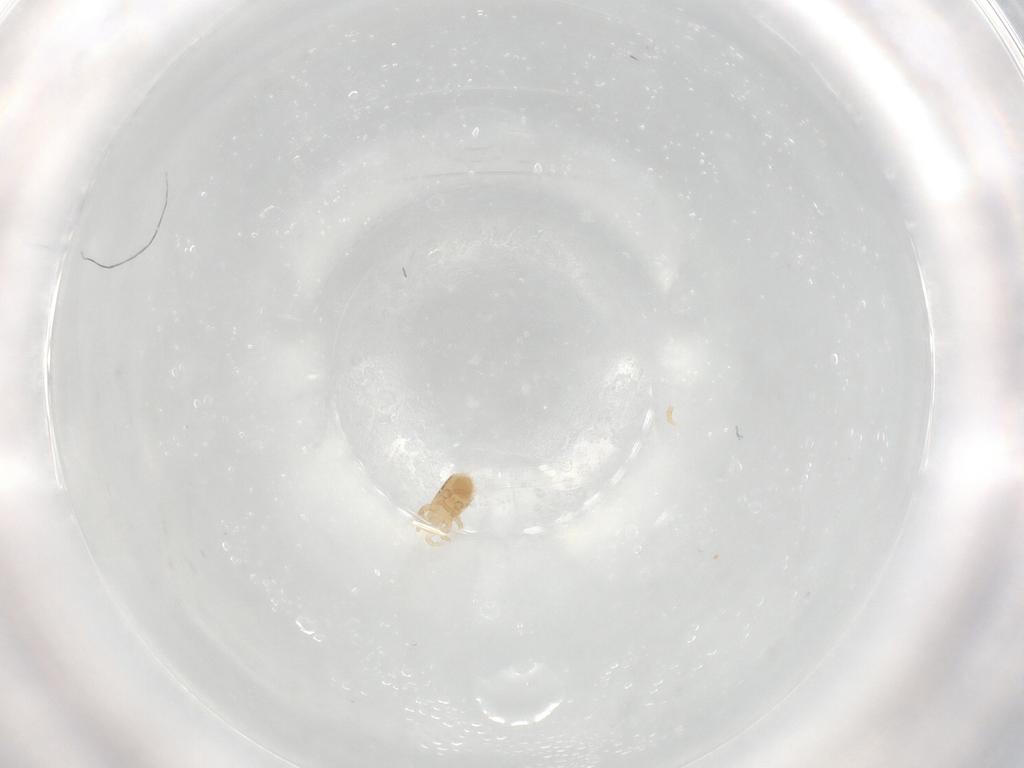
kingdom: Animalia
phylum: Arthropoda
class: Arachnida
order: Mesostigmata
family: Parasitidae
